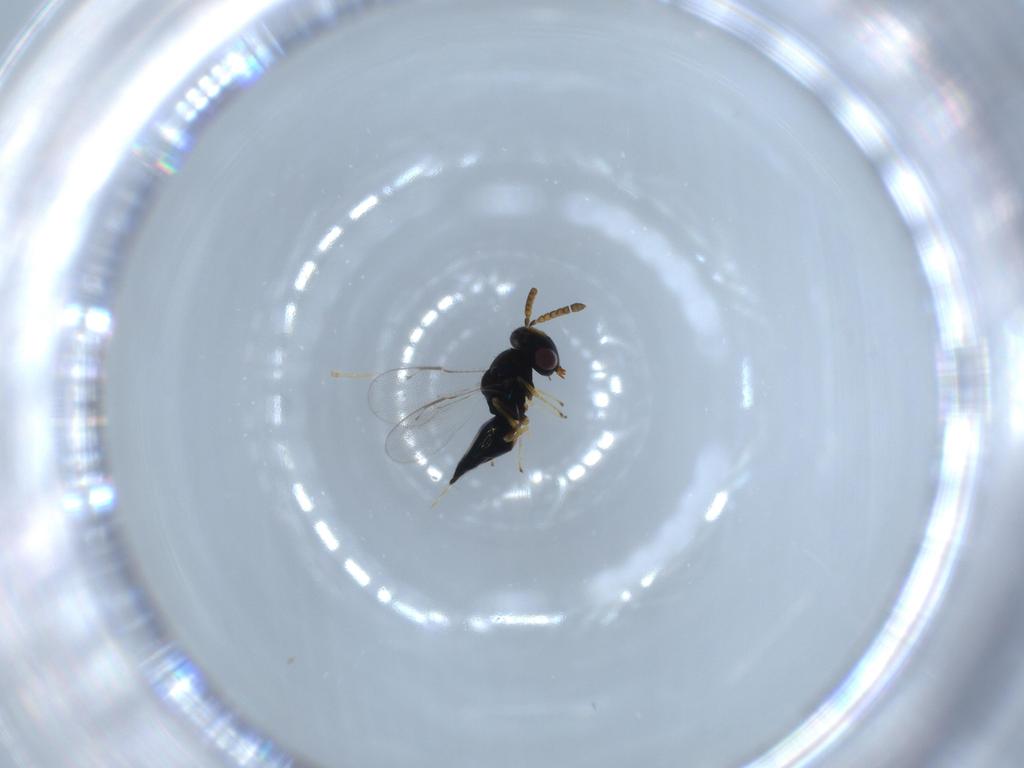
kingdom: Animalia
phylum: Arthropoda
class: Insecta
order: Hymenoptera
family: Pteromalidae
